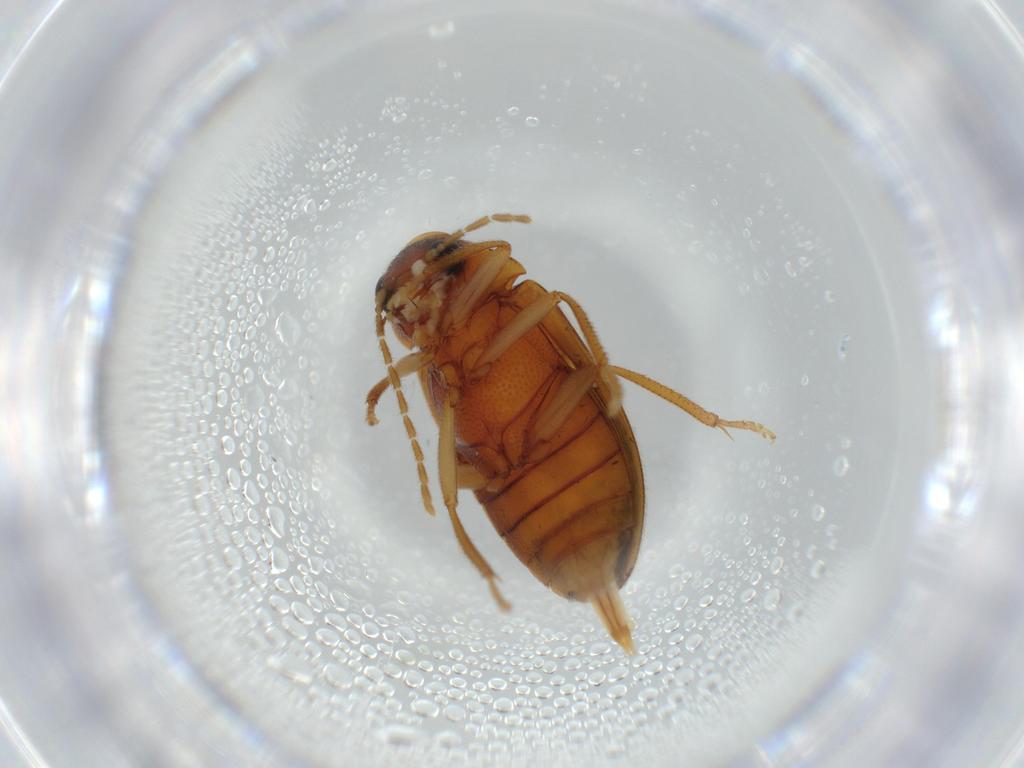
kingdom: Animalia
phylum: Arthropoda
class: Insecta
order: Coleoptera
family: Ptilodactylidae
